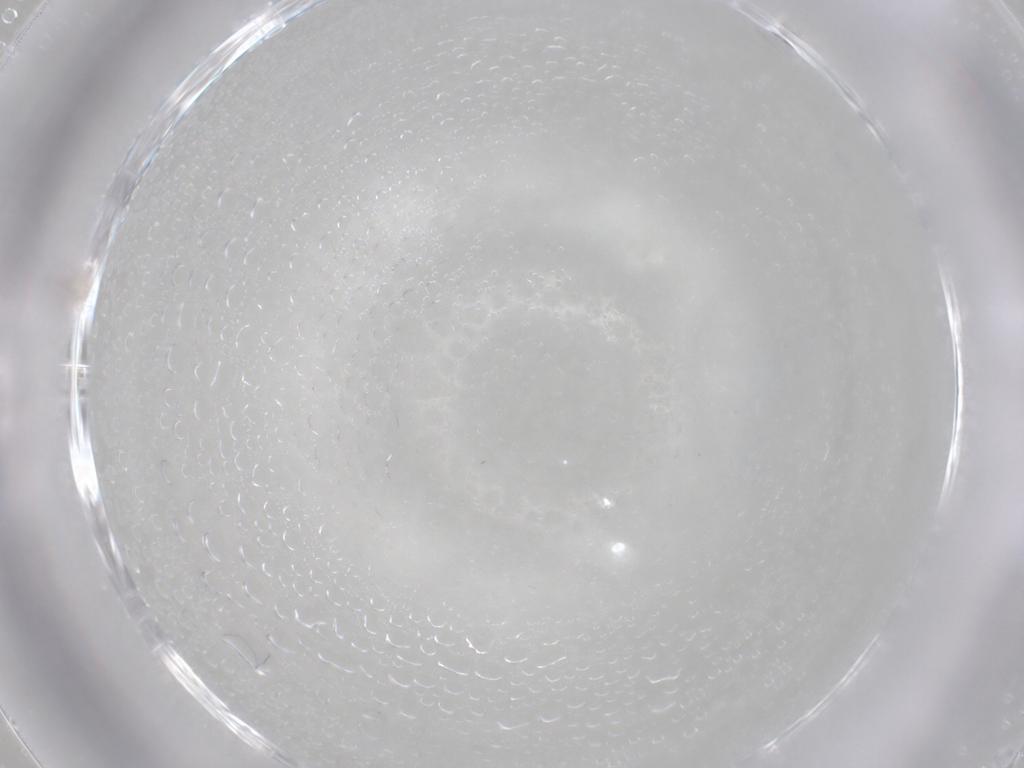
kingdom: Animalia
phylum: Arthropoda
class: Insecta
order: Diptera
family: Tephritidae
